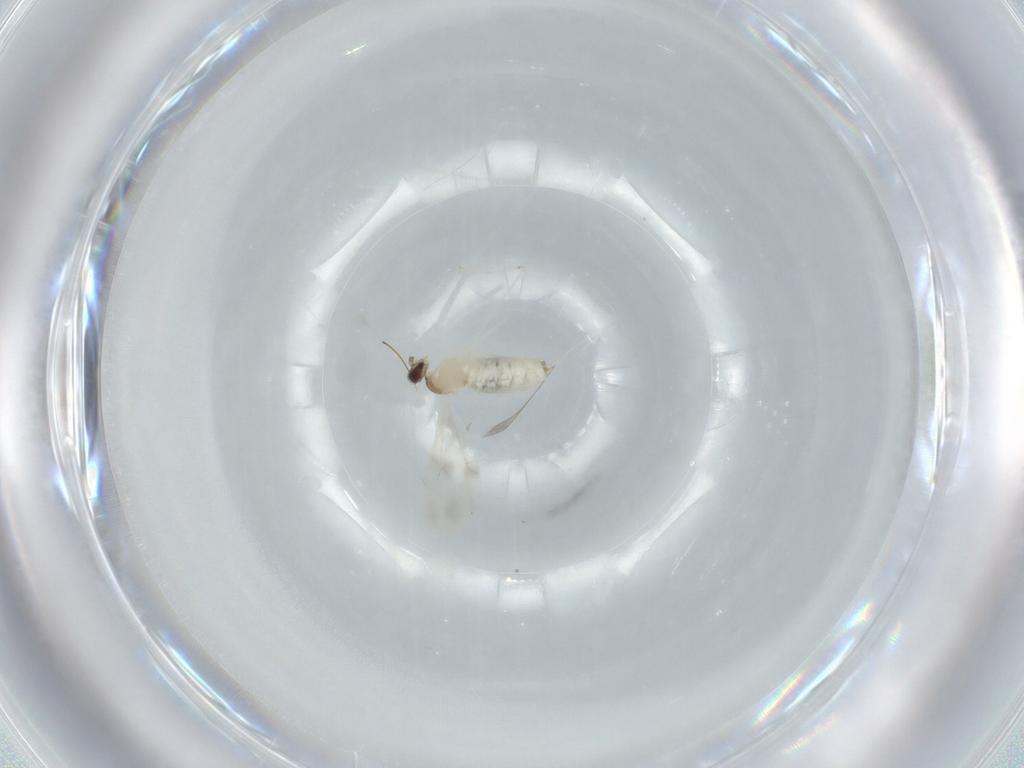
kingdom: Animalia
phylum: Arthropoda
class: Insecta
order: Diptera
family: Cecidomyiidae
